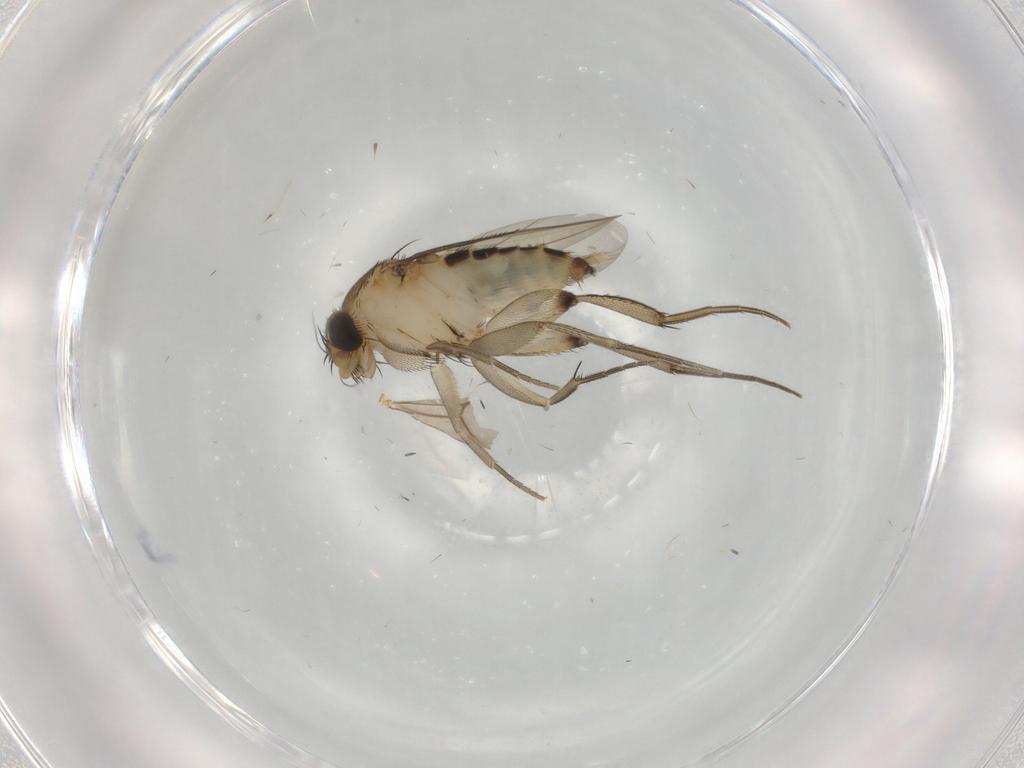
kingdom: Animalia
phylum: Arthropoda
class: Insecta
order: Diptera
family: Phoridae
